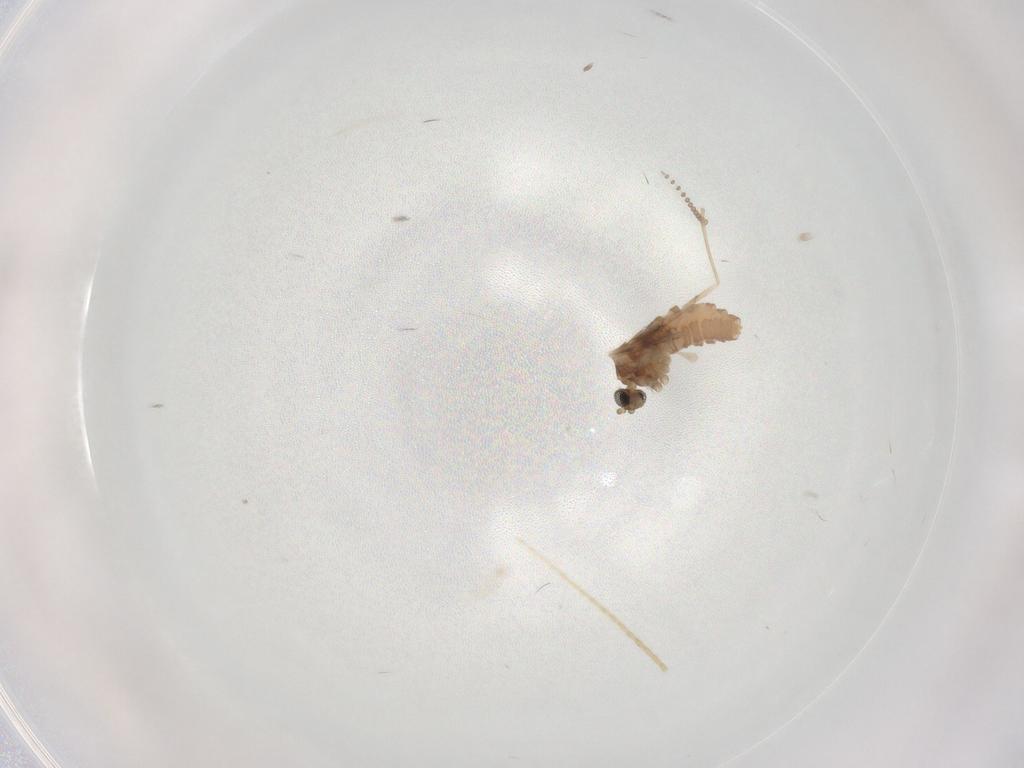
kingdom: Animalia
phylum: Arthropoda
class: Insecta
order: Diptera
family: Cecidomyiidae
